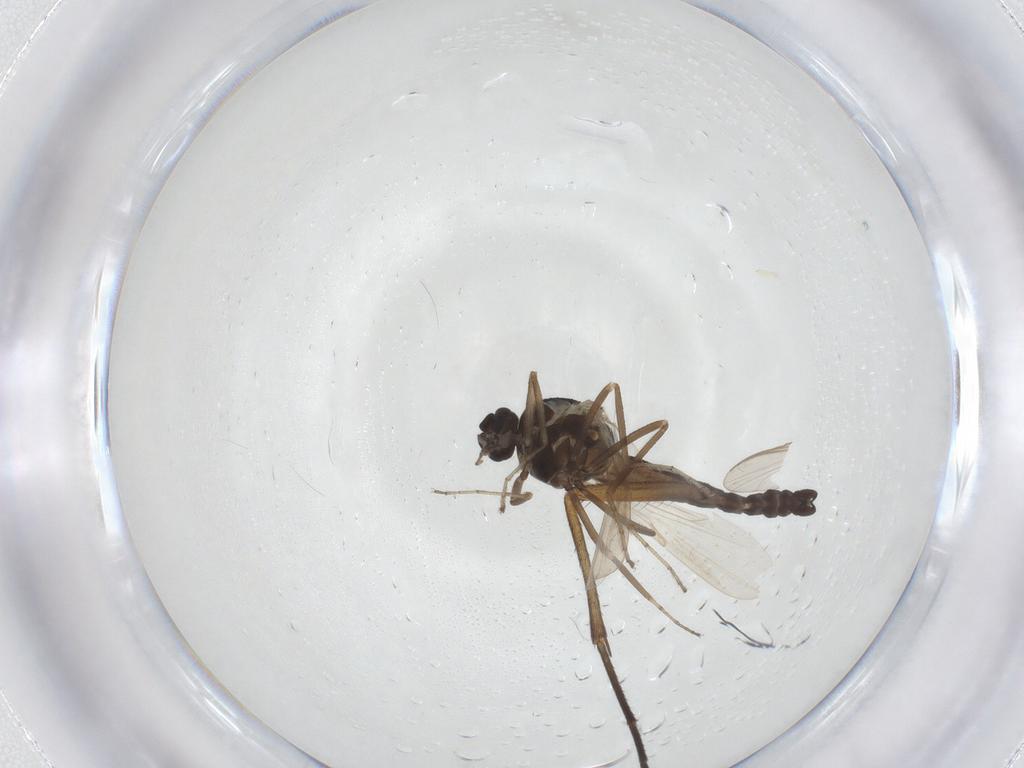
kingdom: Animalia
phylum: Arthropoda
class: Insecta
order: Diptera
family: Ceratopogonidae
